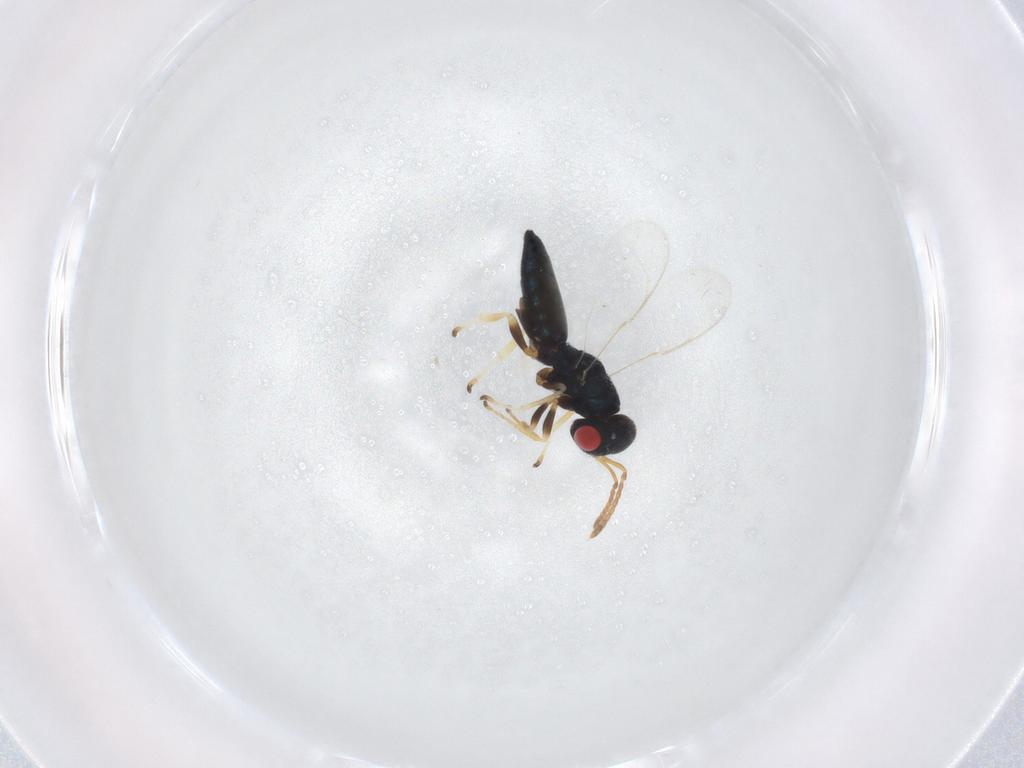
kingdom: Animalia
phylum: Arthropoda
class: Insecta
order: Hymenoptera
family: Pteromalidae
